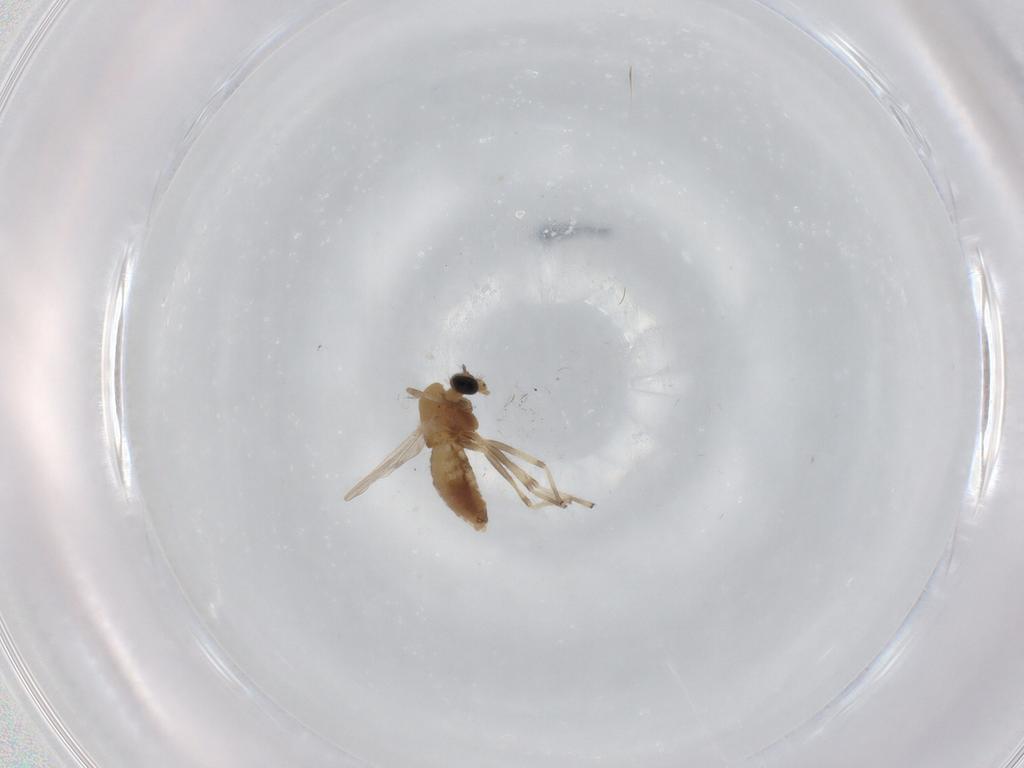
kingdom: Animalia
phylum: Arthropoda
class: Insecta
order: Diptera
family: Chironomidae
